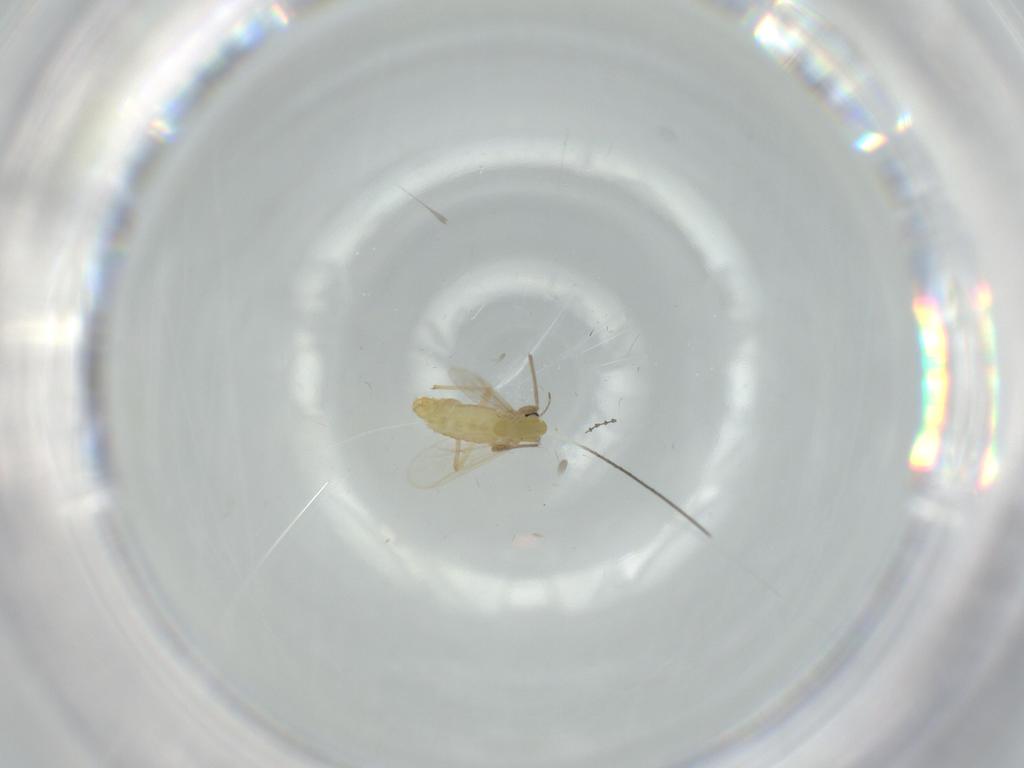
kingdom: Animalia
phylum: Arthropoda
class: Insecta
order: Diptera
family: Chironomidae
